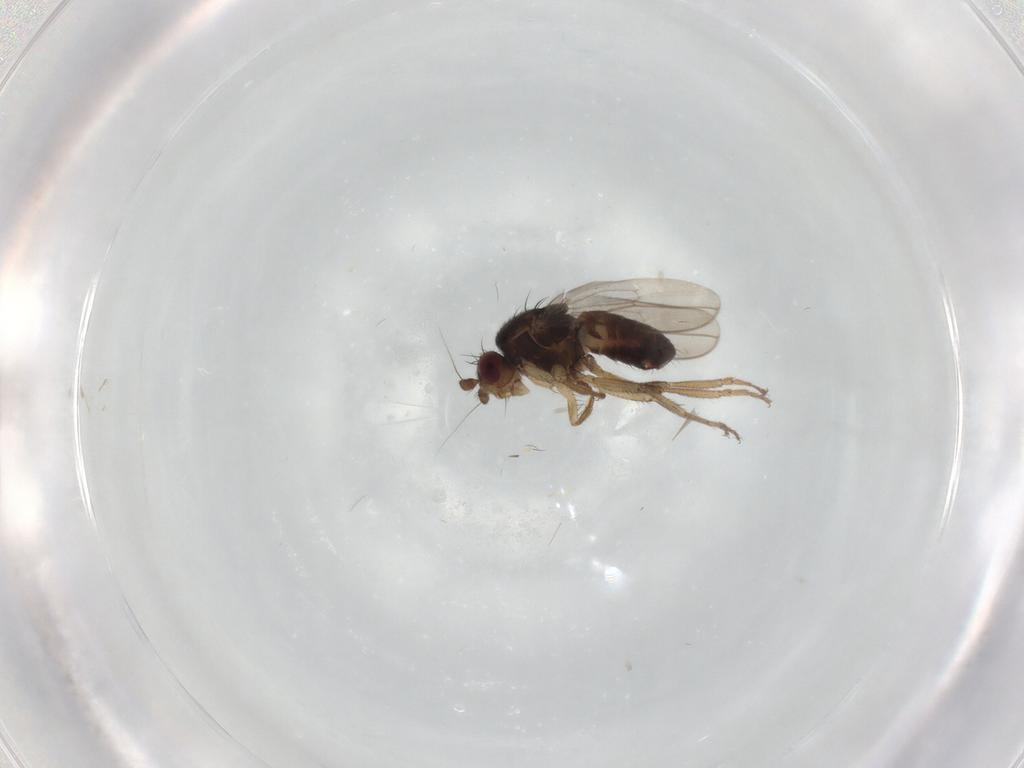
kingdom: Animalia
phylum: Arthropoda
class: Insecta
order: Diptera
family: Sphaeroceridae
